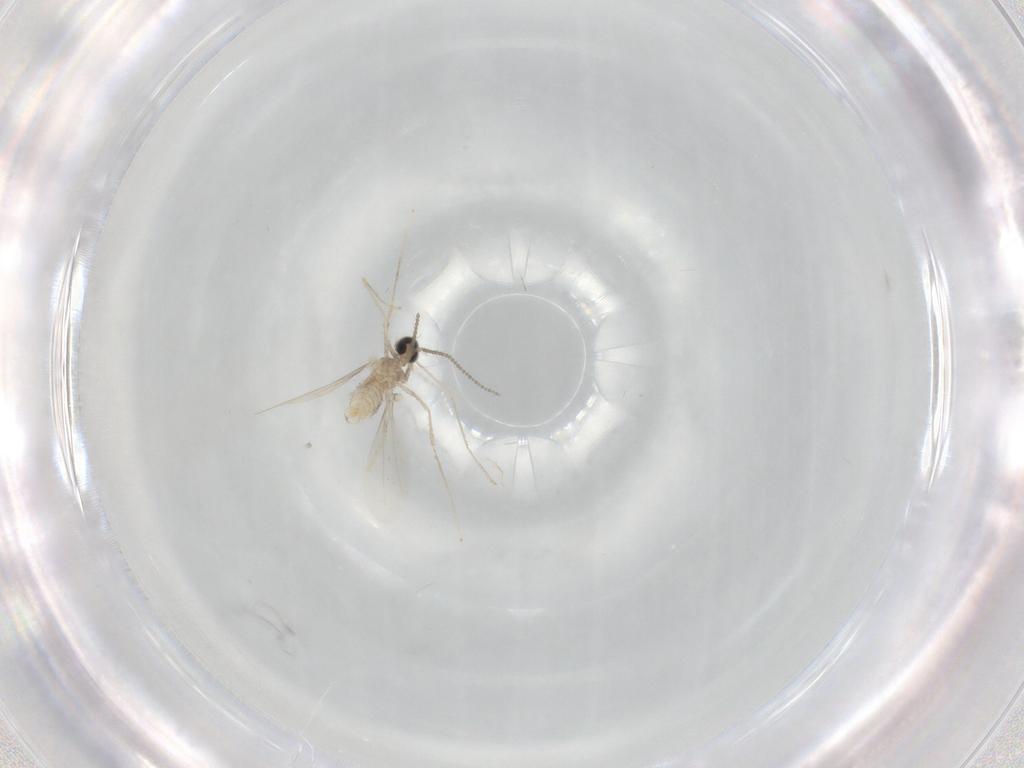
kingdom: Animalia
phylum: Arthropoda
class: Insecta
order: Diptera
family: Cecidomyiidae
